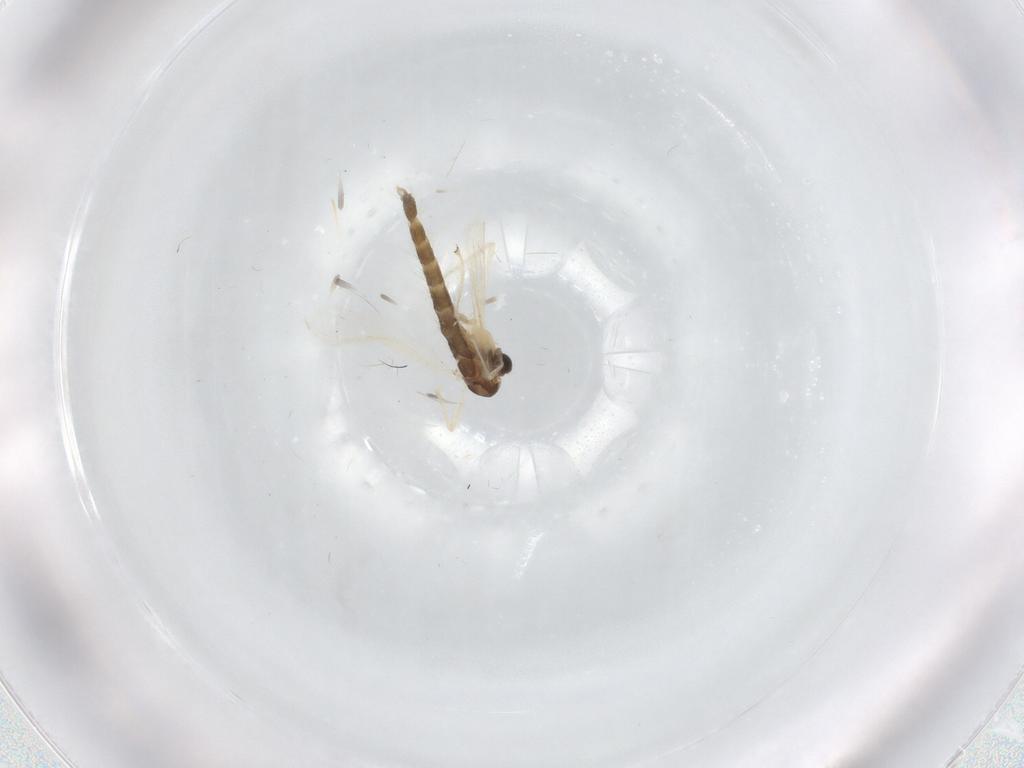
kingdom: Animalia
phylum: Arthropoda
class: Insecta
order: Diptera
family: Chironomidae
